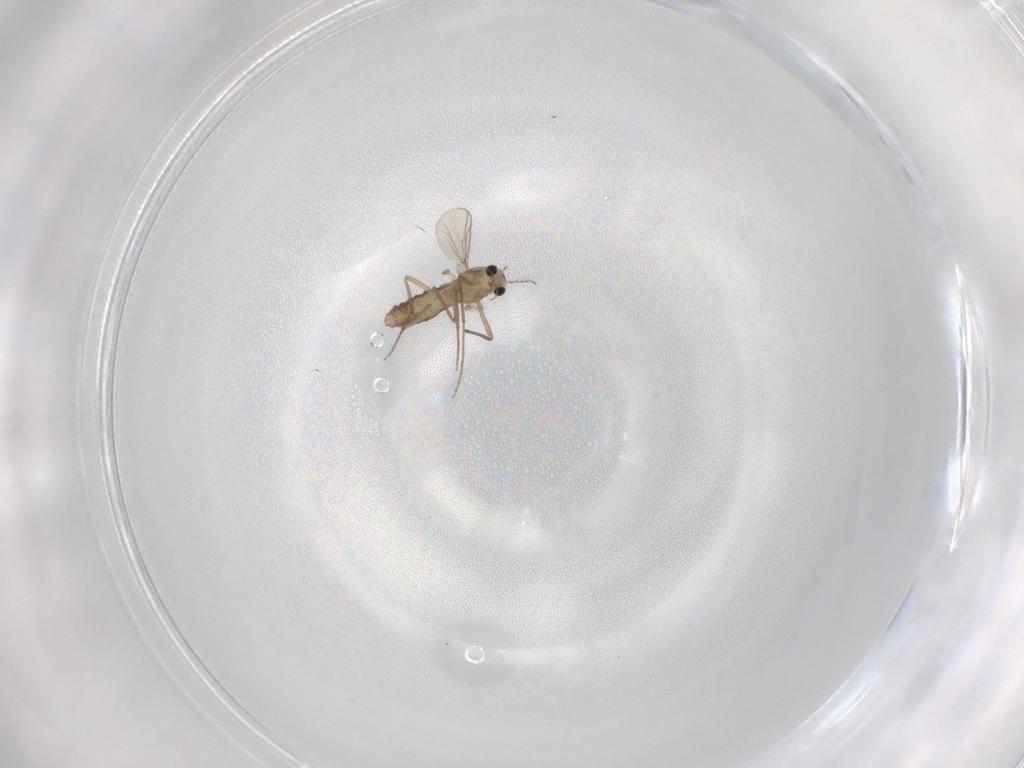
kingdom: Animalia
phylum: Arthropoda
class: Insecta
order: Diptera
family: Chironomidae
